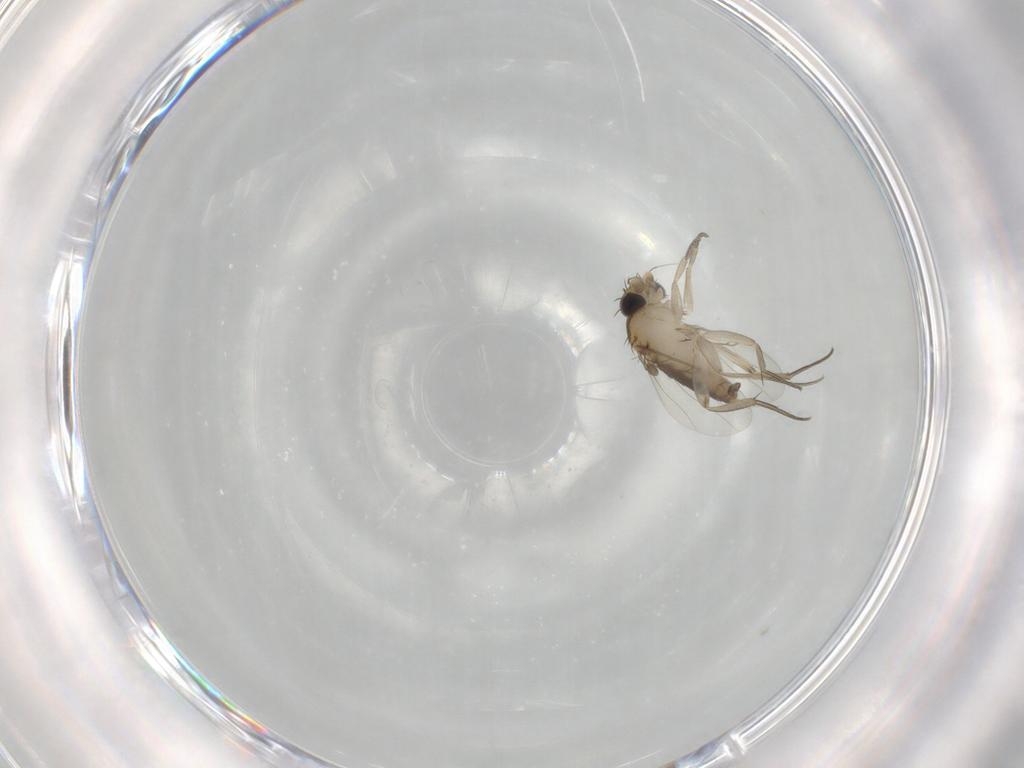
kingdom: Animalia
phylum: Arthropoda
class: Insecta
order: Diptera
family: Phoridae
